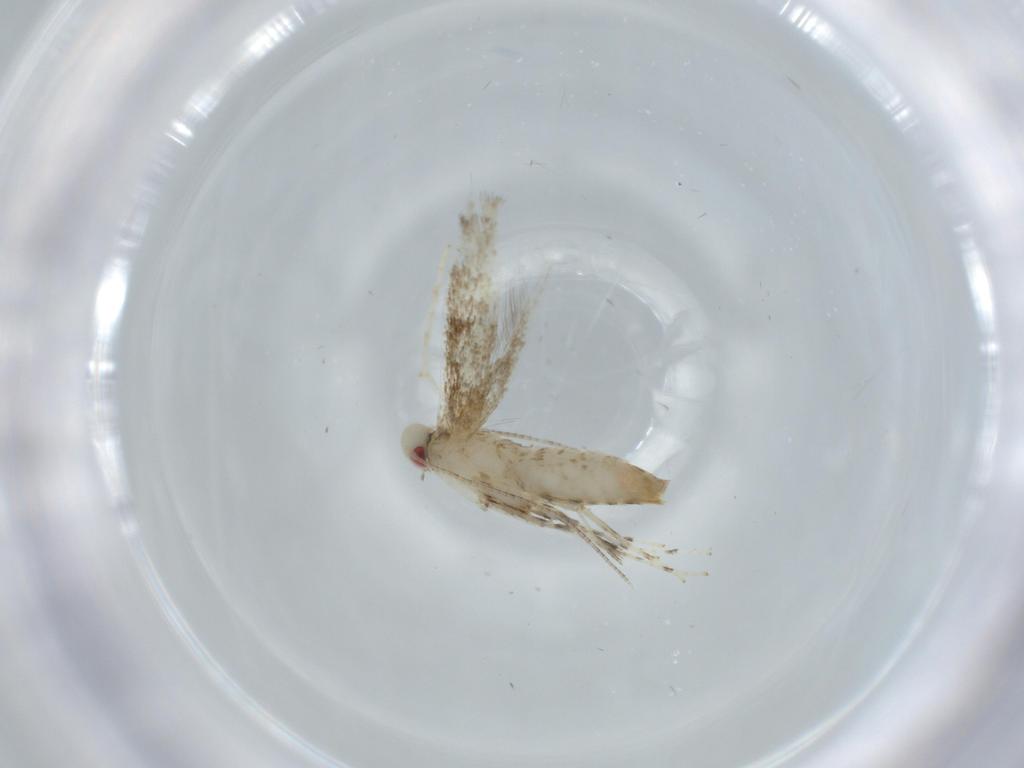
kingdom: Animalia
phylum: Arthropoda
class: Insecta
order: Lepidoptera
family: Gracillariidae
